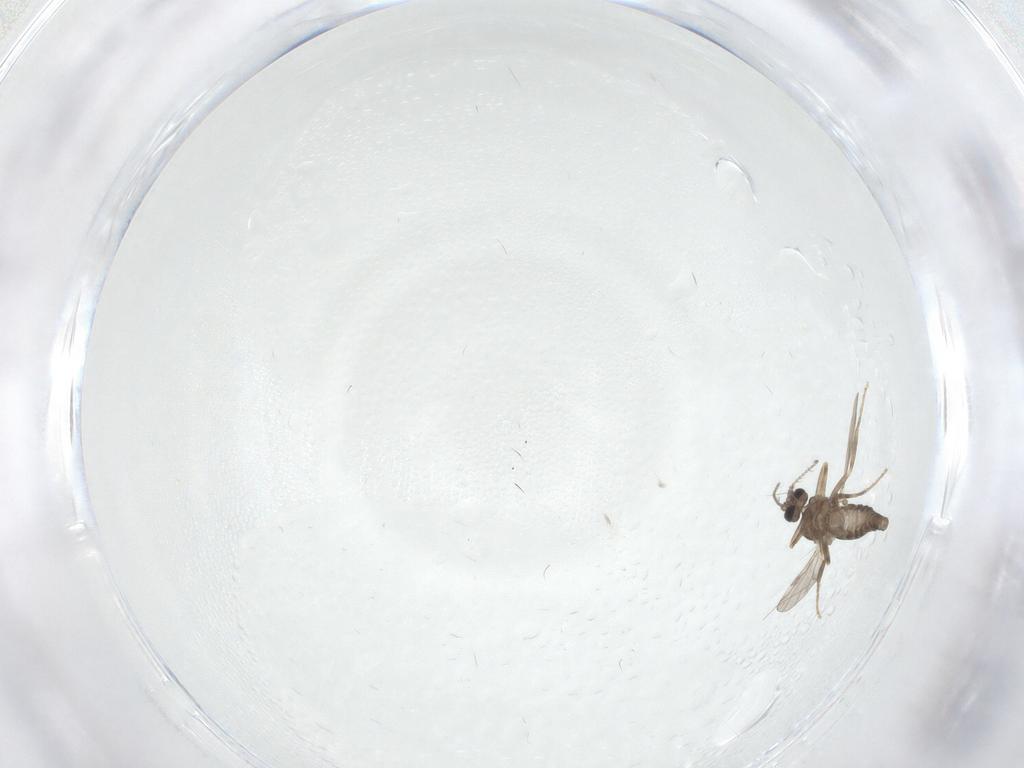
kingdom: Animalia
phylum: Arthropoda
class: Insecta
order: Diptera
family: Ceratopogonidae
